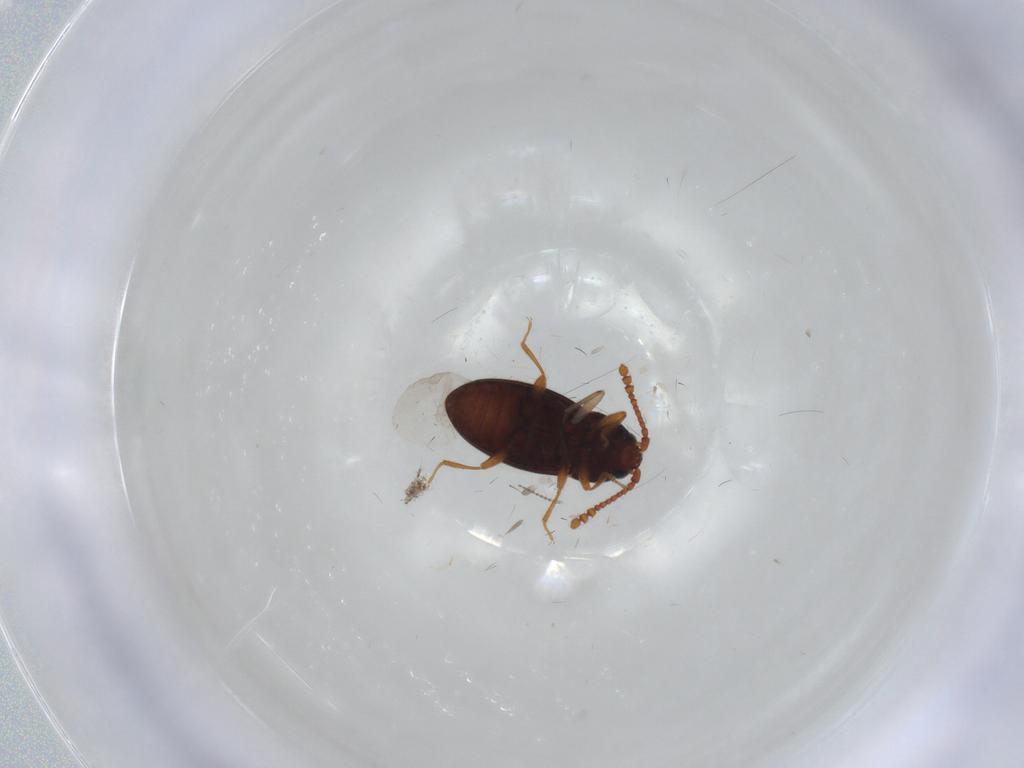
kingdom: Animalia
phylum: Arthropoda
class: Insecta
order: Coleoptera
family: Cryptophagidae
